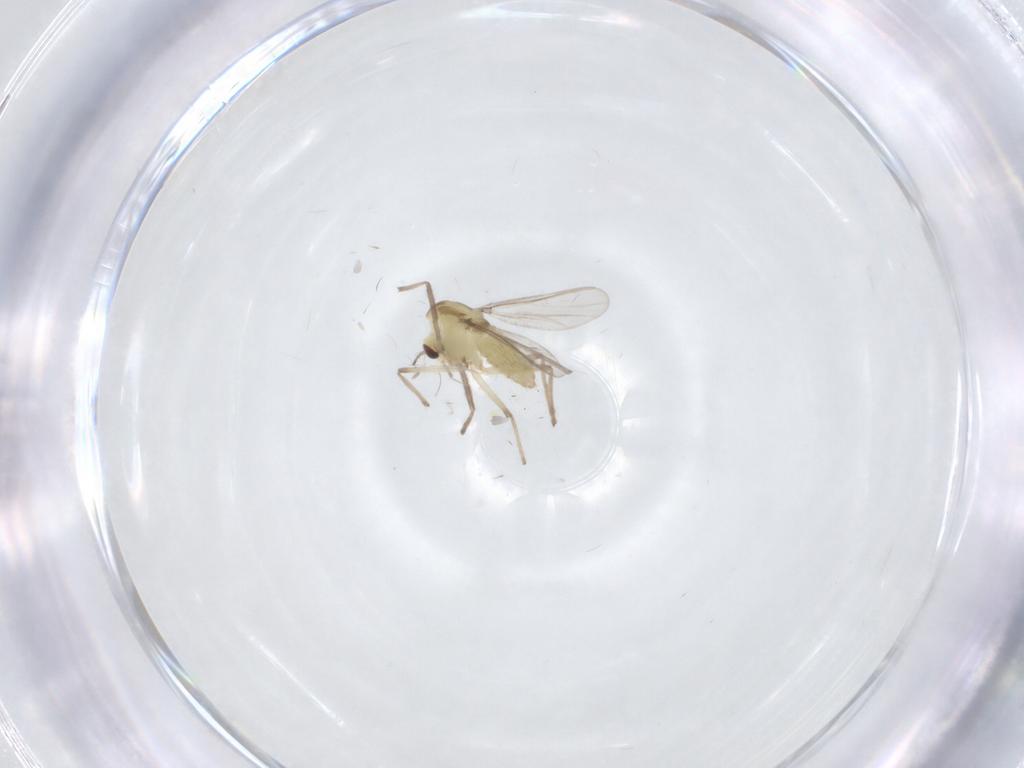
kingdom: Animalia
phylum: Arthropoda
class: Insecta
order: Diptera
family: Chironomidae
